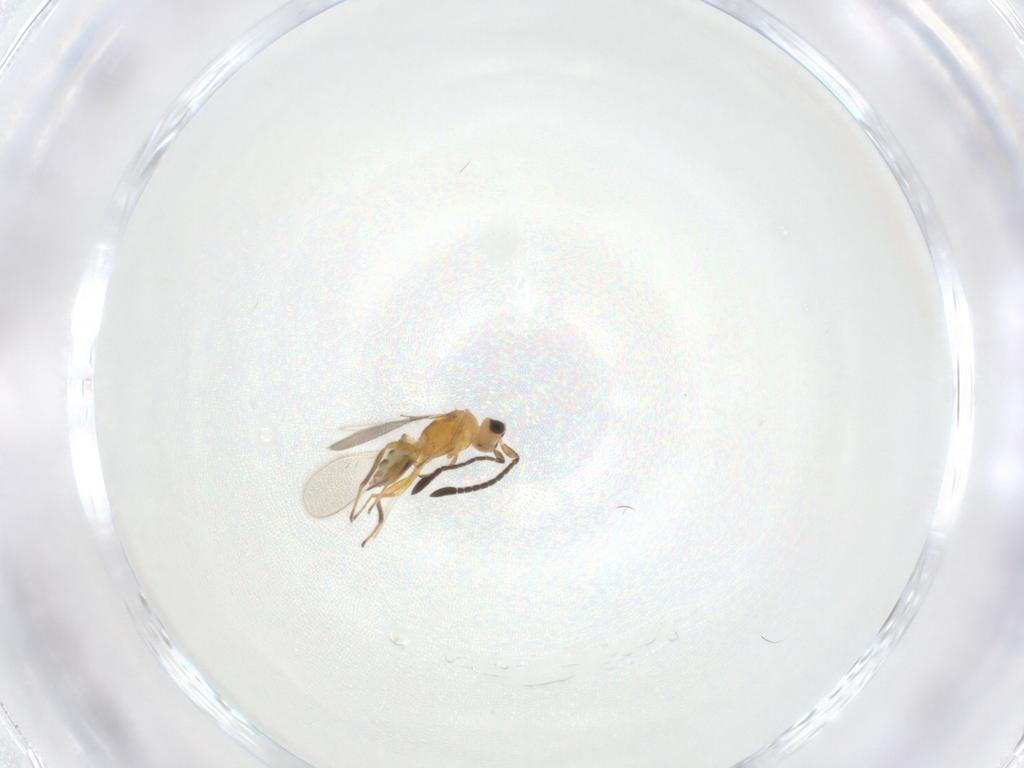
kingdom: Animalia
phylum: Arthropoda
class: Insecta
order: Hymenoptera
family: Mymaridae
